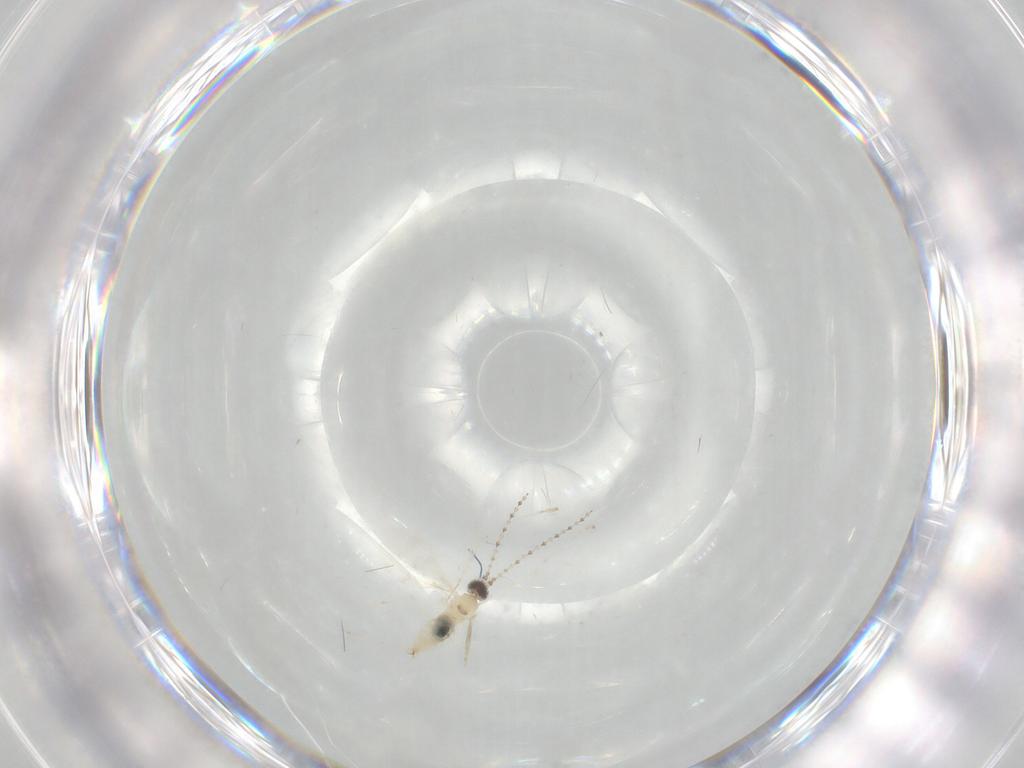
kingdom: Animalia
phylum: Arthropoda
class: Insecta
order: Diptera
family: Cecidomyiidae
